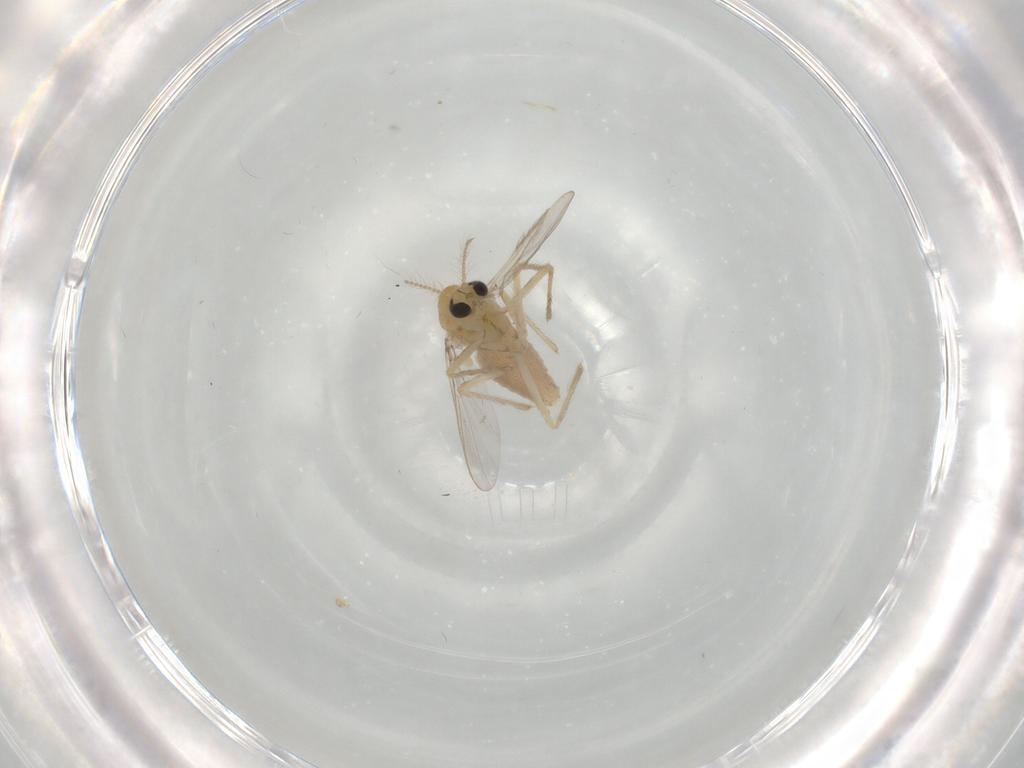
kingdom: Animalia
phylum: Arthropoda
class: Insecta
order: Diptera
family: Chironomidae
